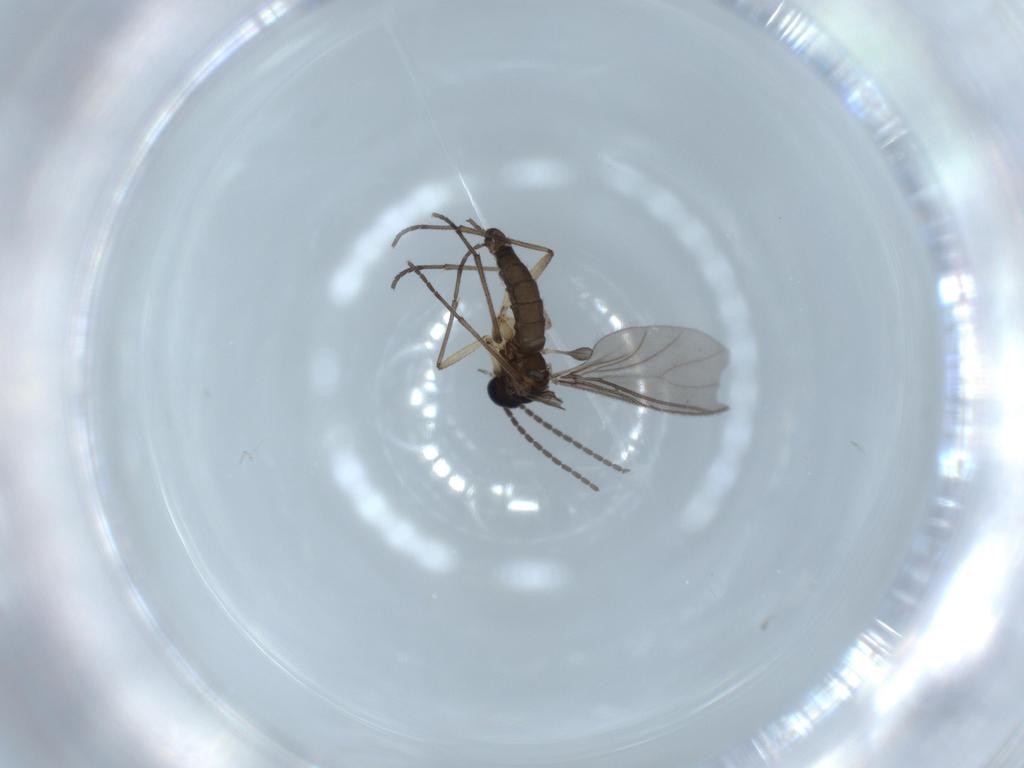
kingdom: Animalia
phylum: Arthropoda
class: Insecta
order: Diptera
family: Sciaridae
